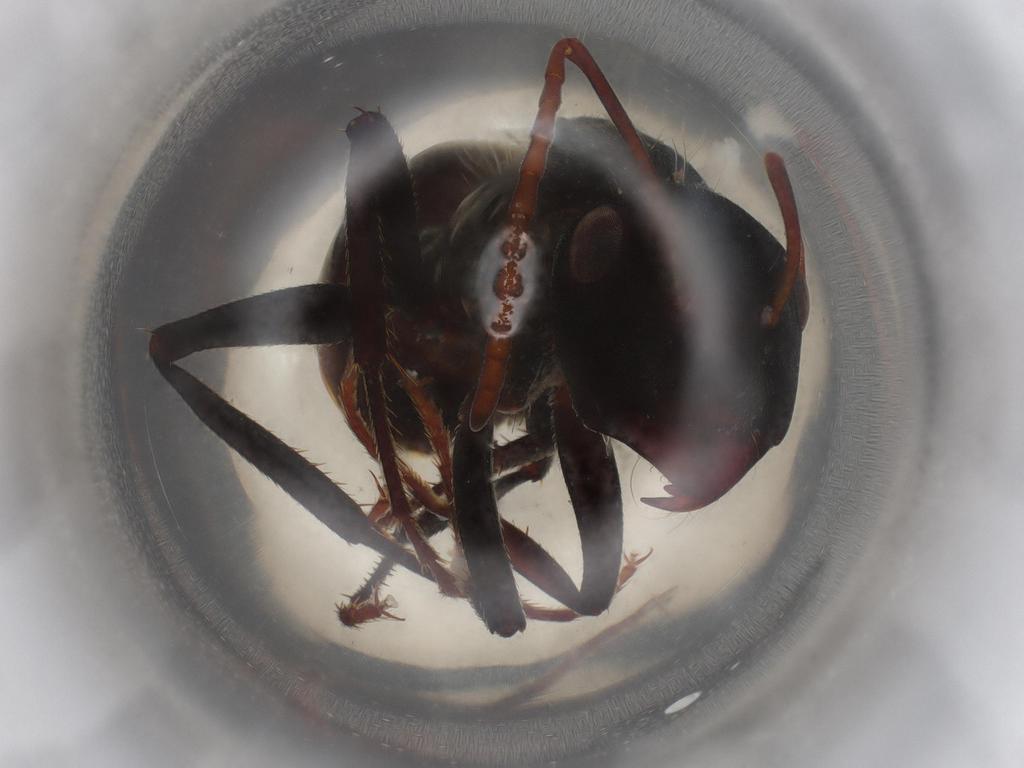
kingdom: Animalia
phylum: Arthropoda
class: Insecta
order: Hymenoptera
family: Formicidae
